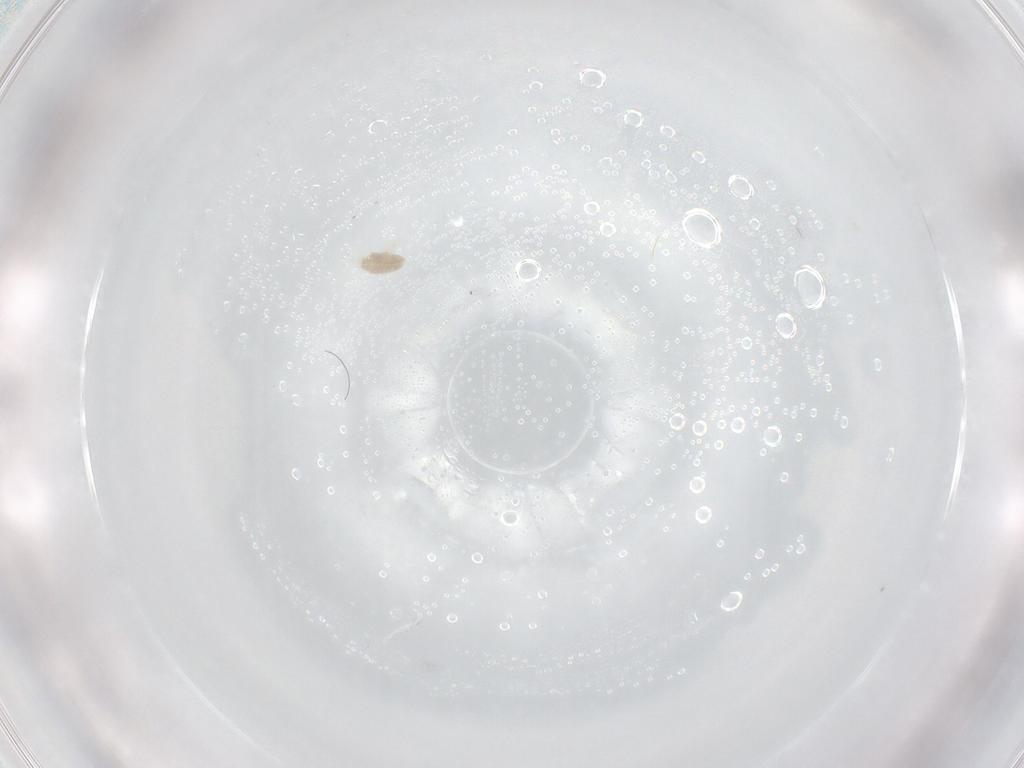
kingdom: Animalia
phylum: Arthropoda
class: Arachnida
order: Trombidiformes
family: Eupodidae
